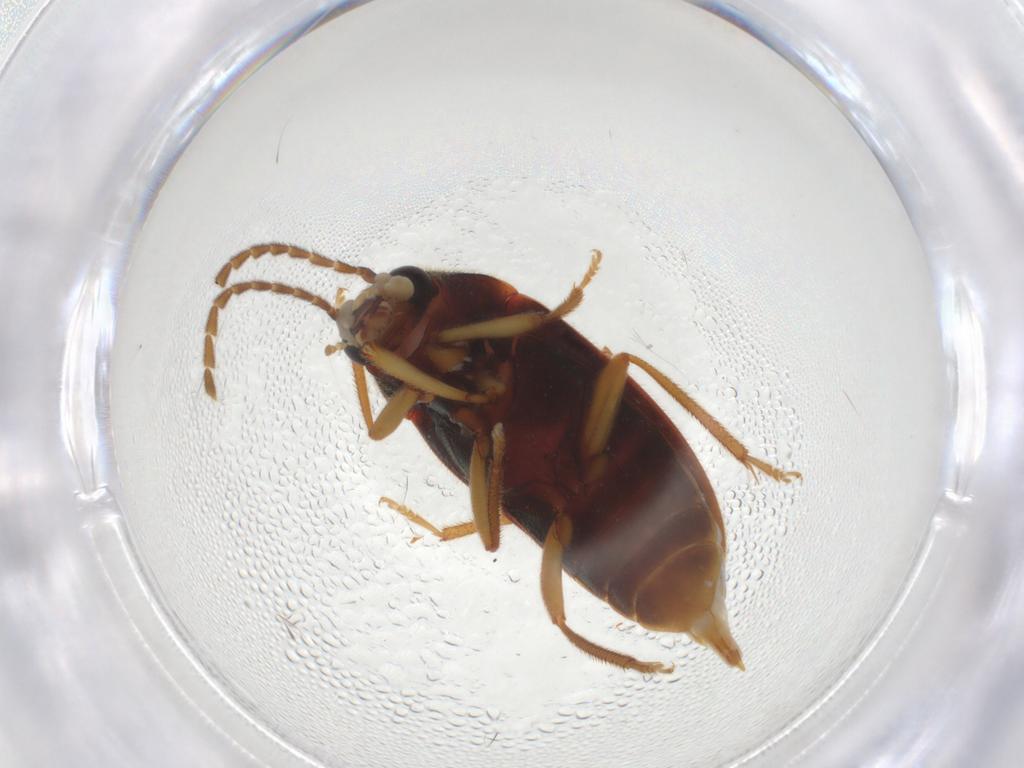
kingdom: Animalia
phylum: Arthropoda
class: Insecta
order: Coleoptera
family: Ptilodactylidae
